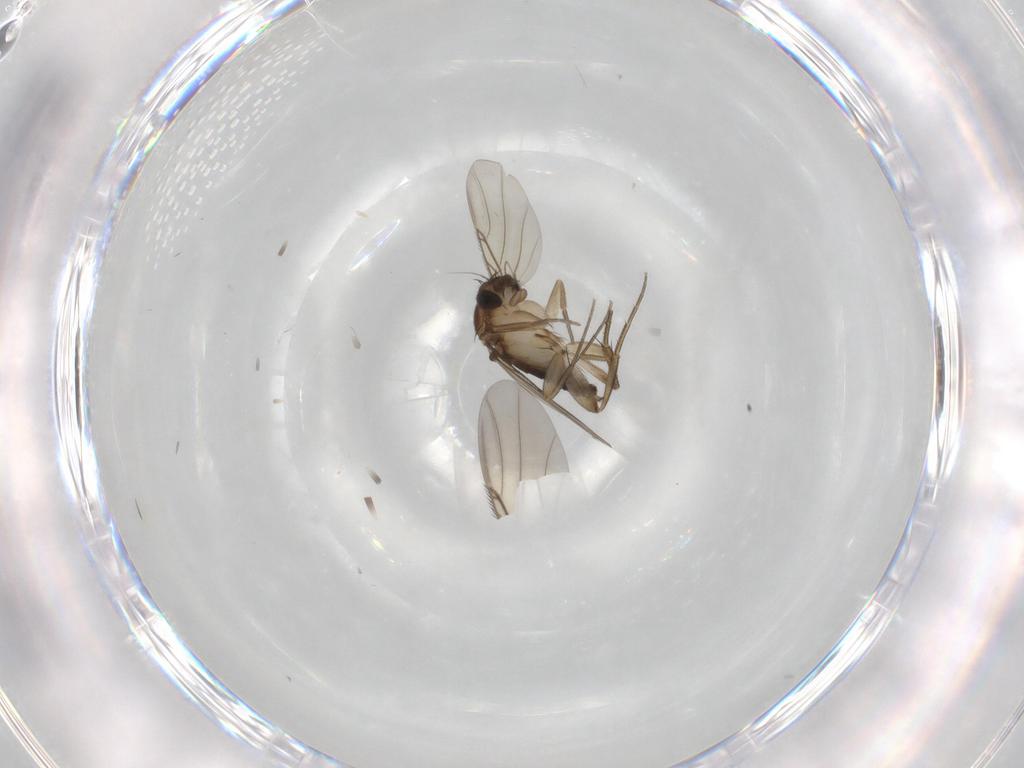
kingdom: Animalia
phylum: Arthropoda
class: Insecta
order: Diptera
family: Phoridae
